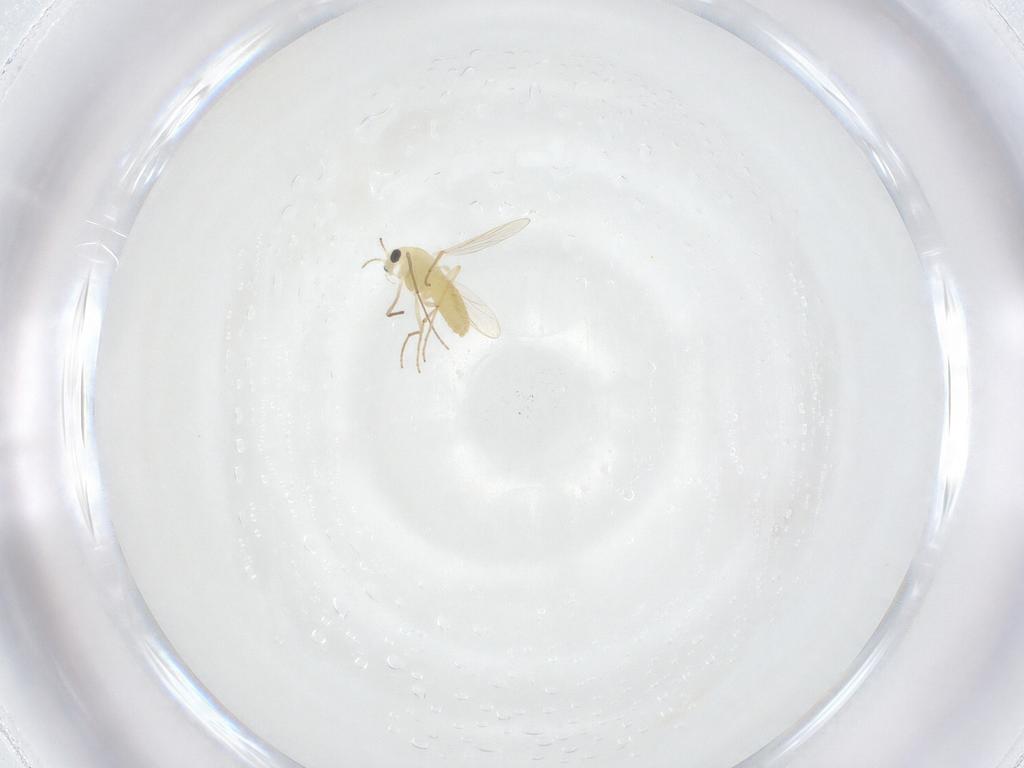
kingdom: Animalia
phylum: Arthropoda
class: Insecta
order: Diptera
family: Chironomidae
